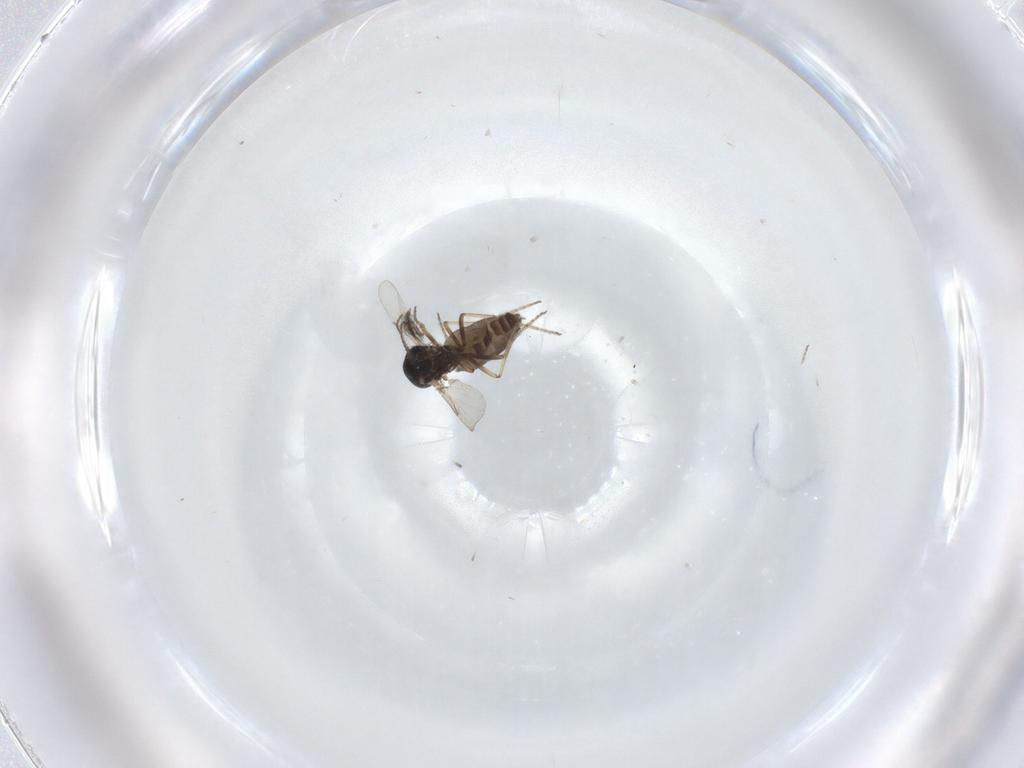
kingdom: Animalia
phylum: Arthropoda
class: Insecta
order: Diptera
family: Ceratopogonidae
